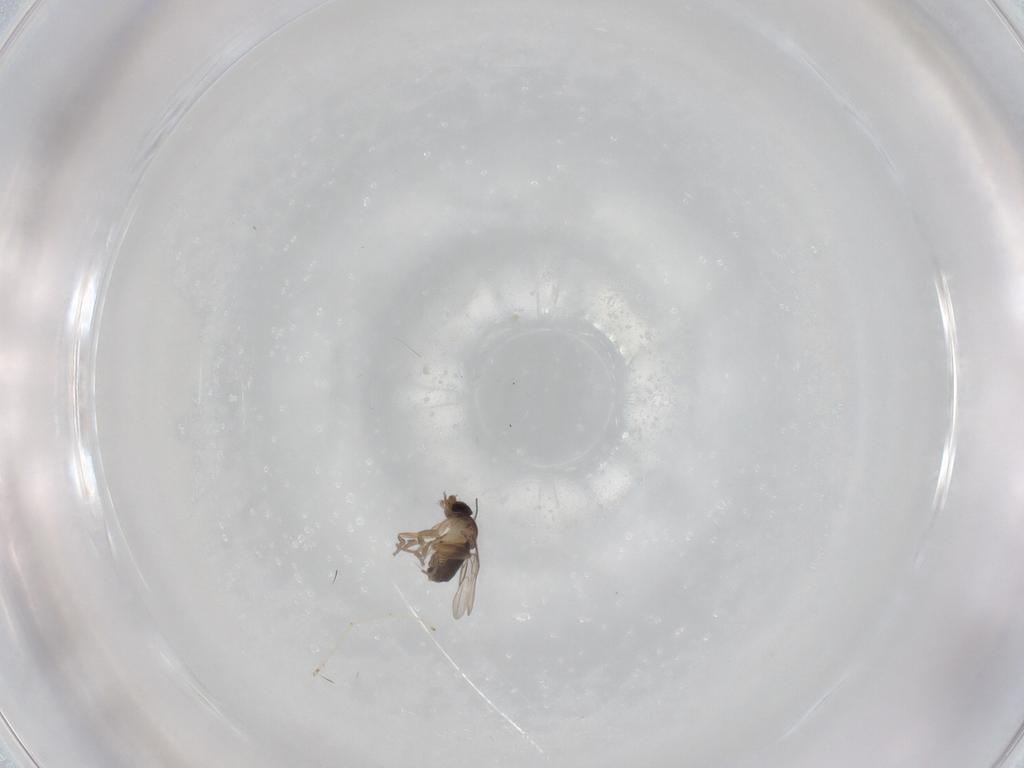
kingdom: Animalia
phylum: Arthropoda
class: Insecta
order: Diptera
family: Phoridae
